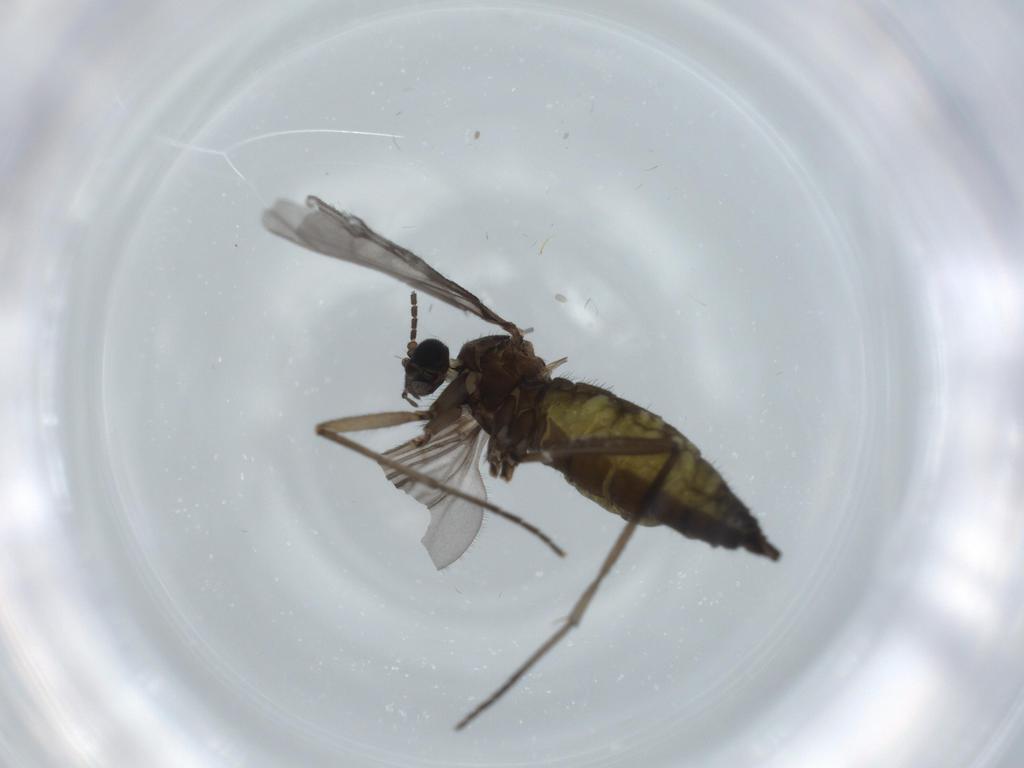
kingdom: Animalia
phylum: Arthropoda
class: Insecta
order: Diptera
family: Sciaridae
